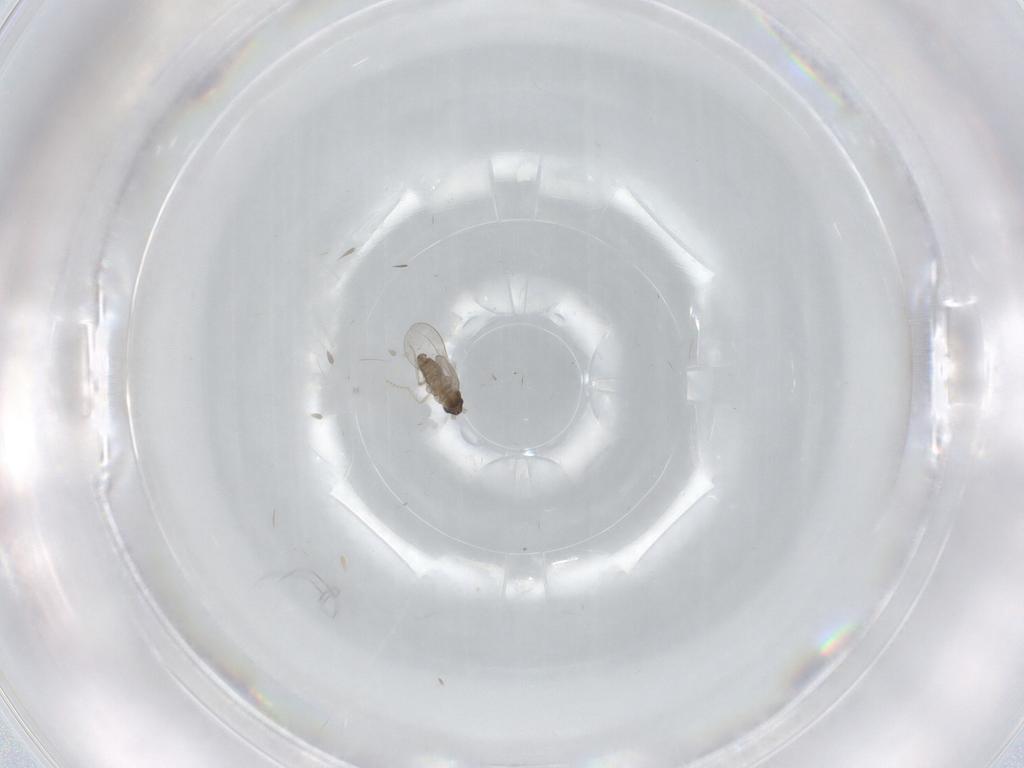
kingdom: Animalia
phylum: Arthropoda
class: Insecta
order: Diptera
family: Cecidomyiidae
